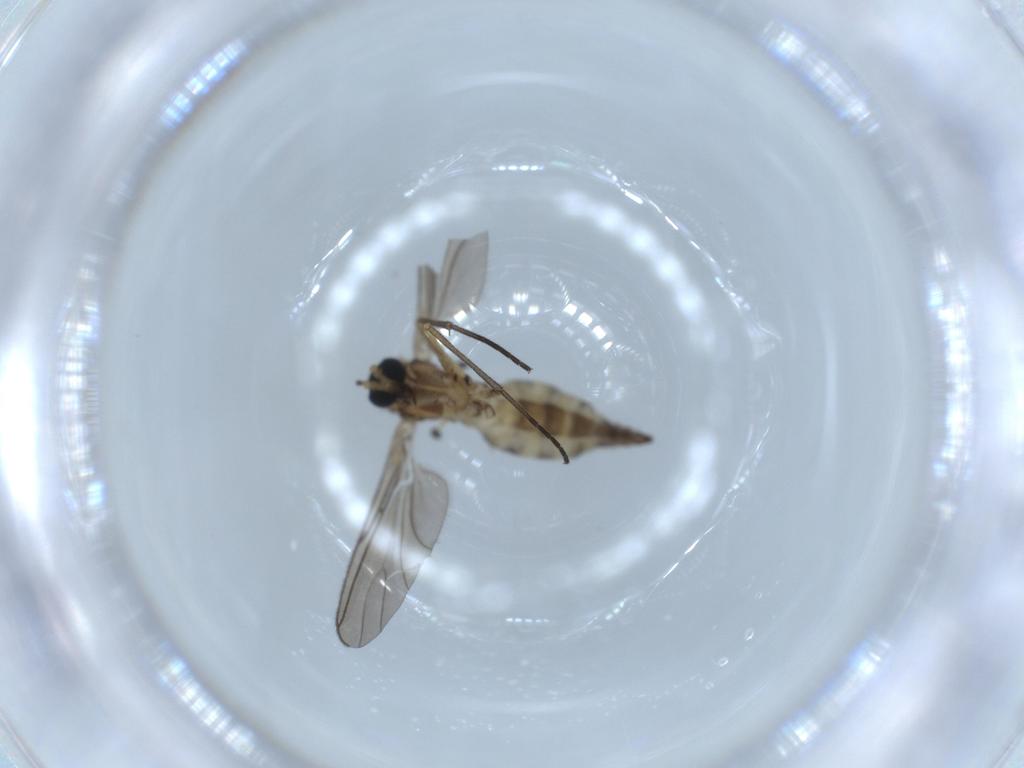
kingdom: Animalia
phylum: Arthropoda
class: Insecta
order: Diptera
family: Sciaridae
